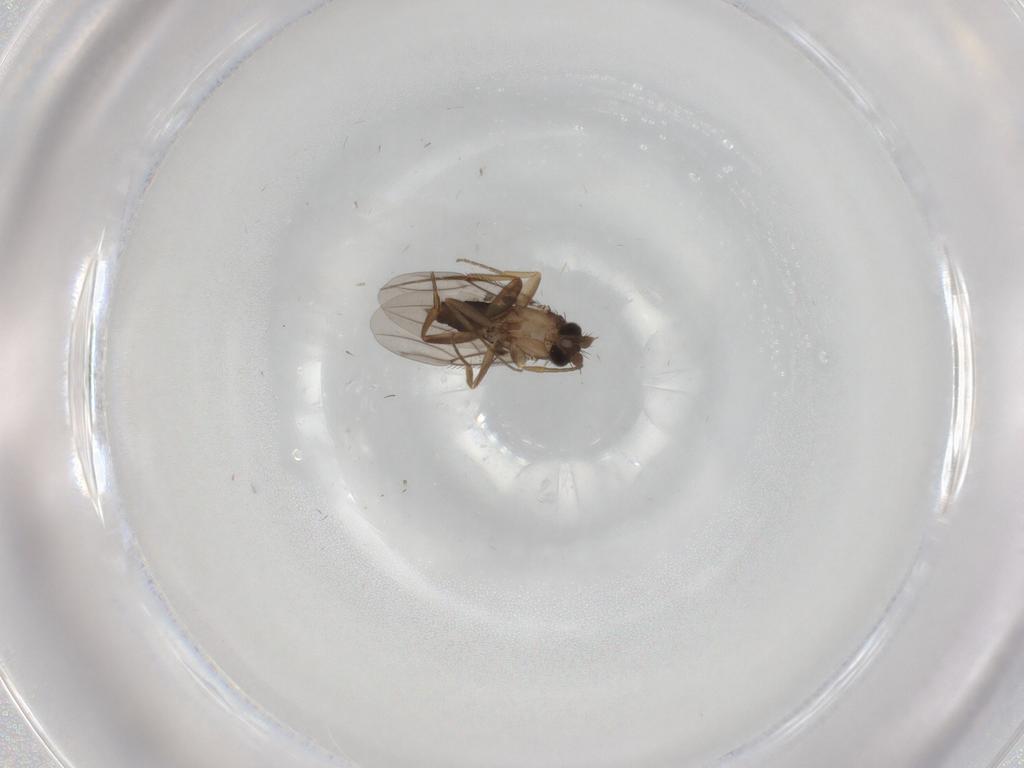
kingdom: Animalia
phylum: Arthropoda
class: Insecta
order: Diptera
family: Phoridae
